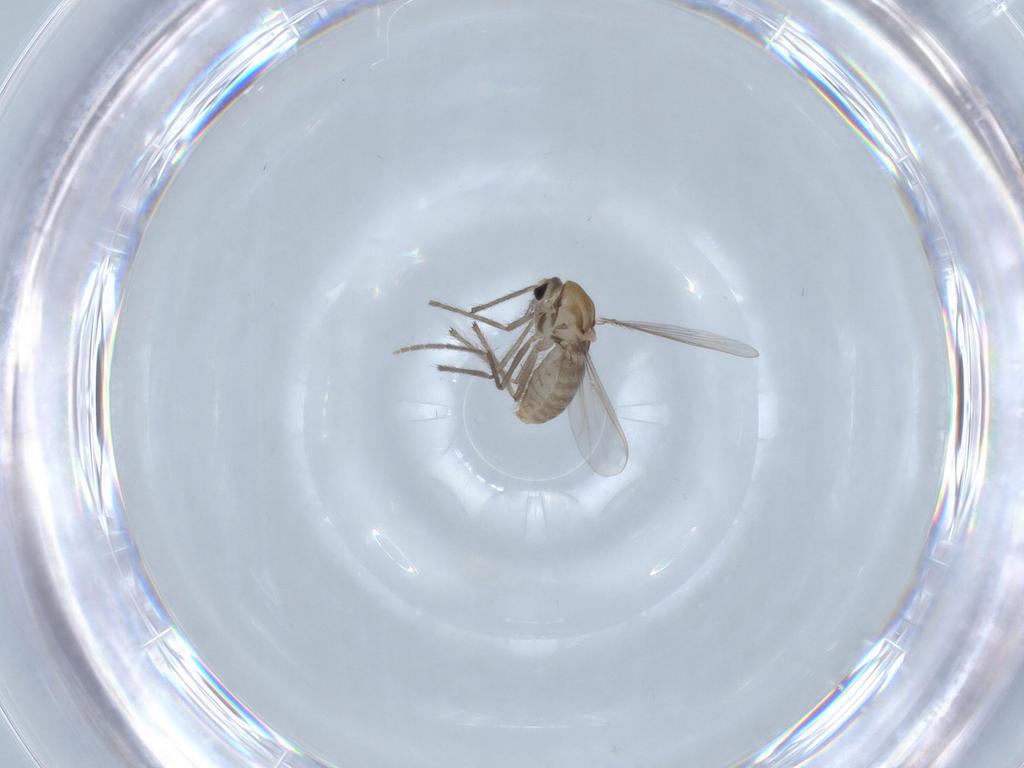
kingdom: Animalia
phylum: Arthropoda
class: Insecta
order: Diptera
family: Chironomidae
